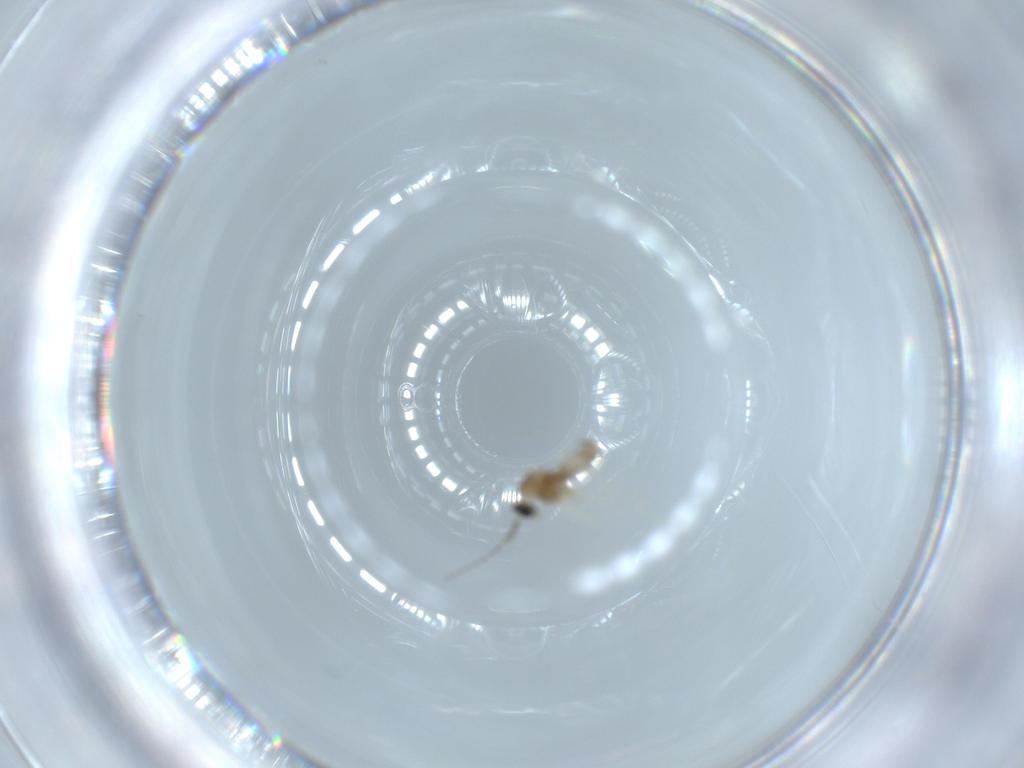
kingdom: Animalia
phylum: Arthropoda
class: Insecta
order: Diptera
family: Cecidomyiidae
